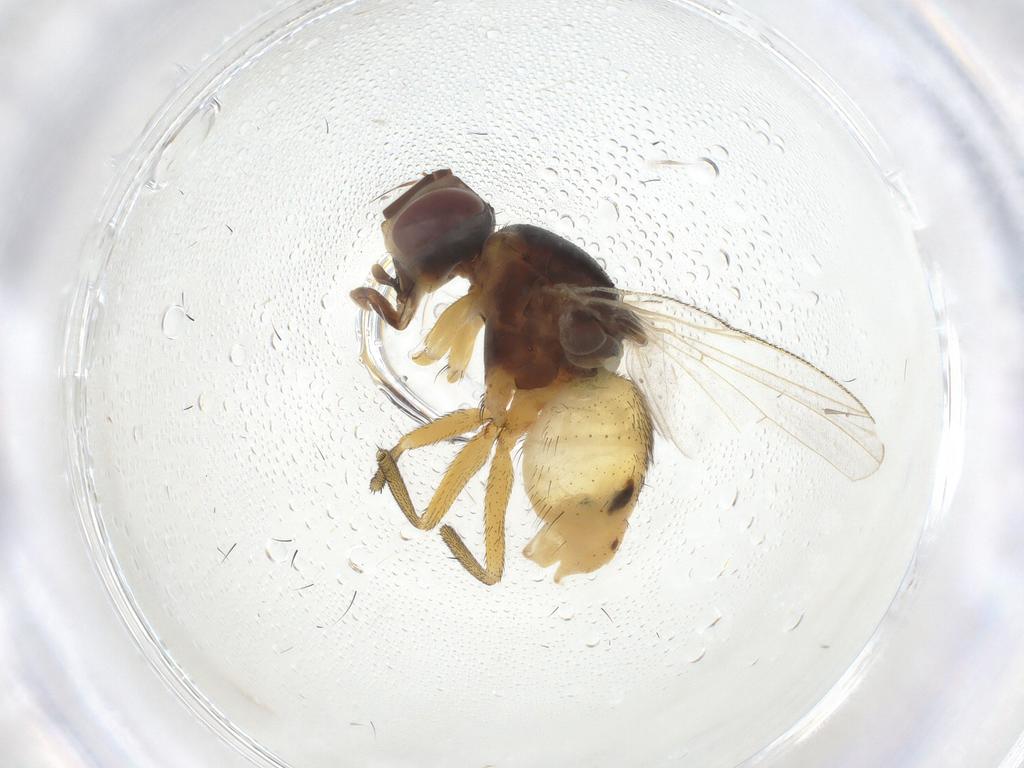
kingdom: Animalia
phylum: Arthropoda
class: Insecta
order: Diptera
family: Muscidae
